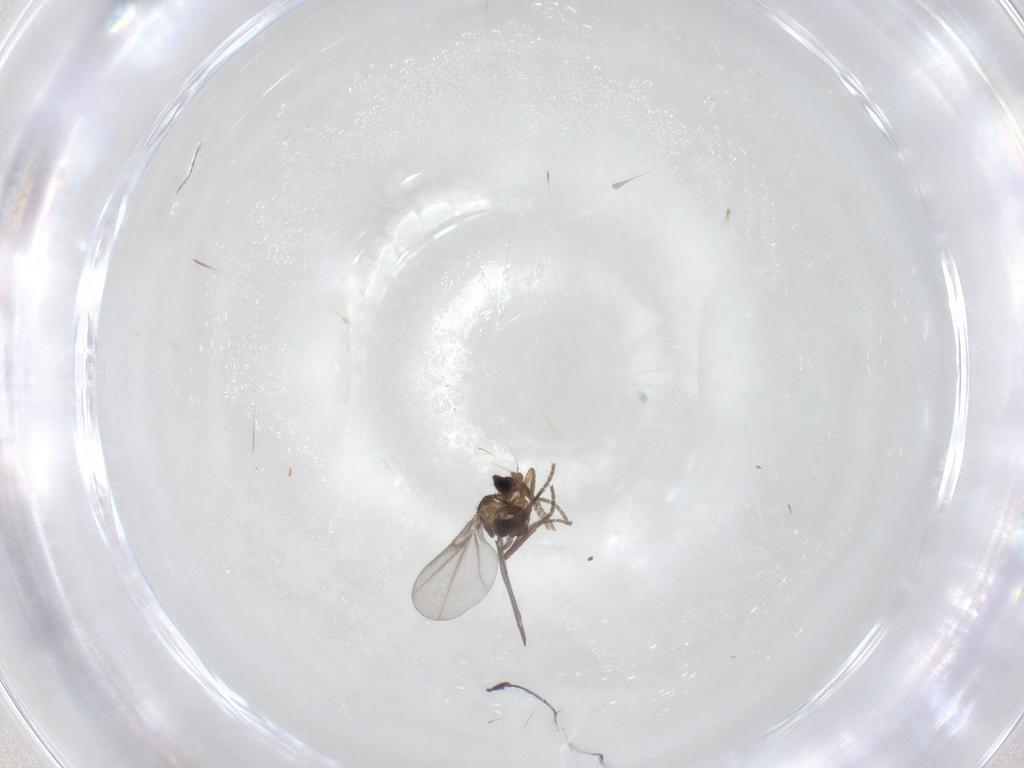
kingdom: Animalia
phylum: Arthropoda
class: Insecta
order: Diptera
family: Phoridae
